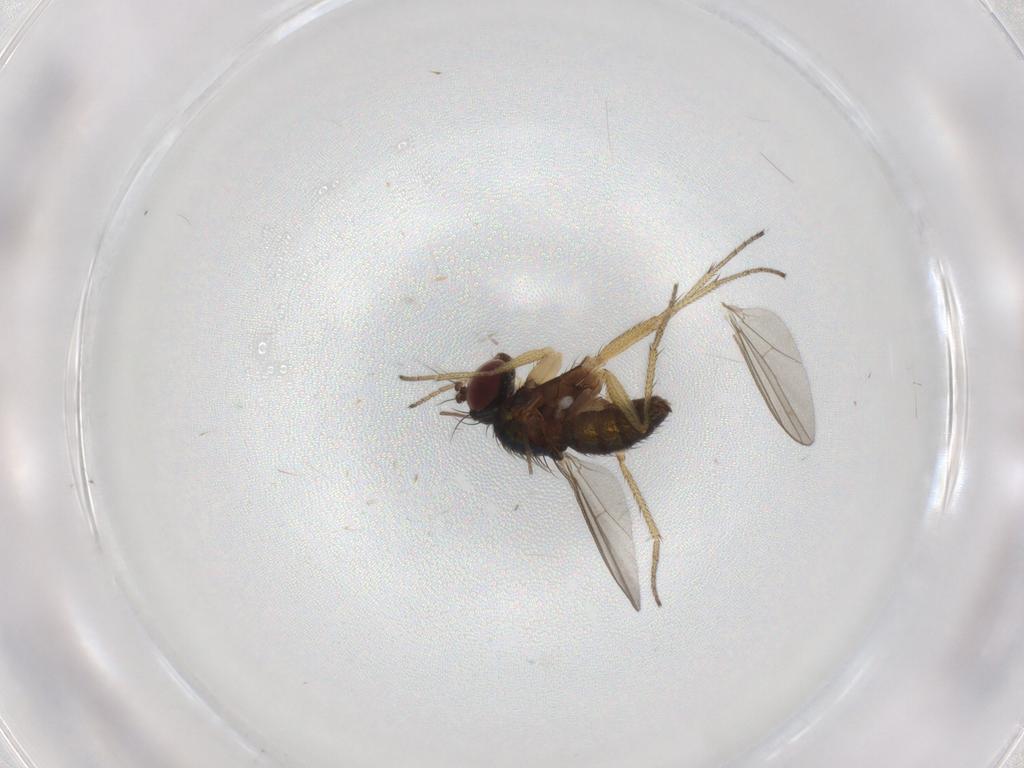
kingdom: Animalia
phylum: Arthropoda
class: Insecta
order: Diptera
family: Dolichopodidae
